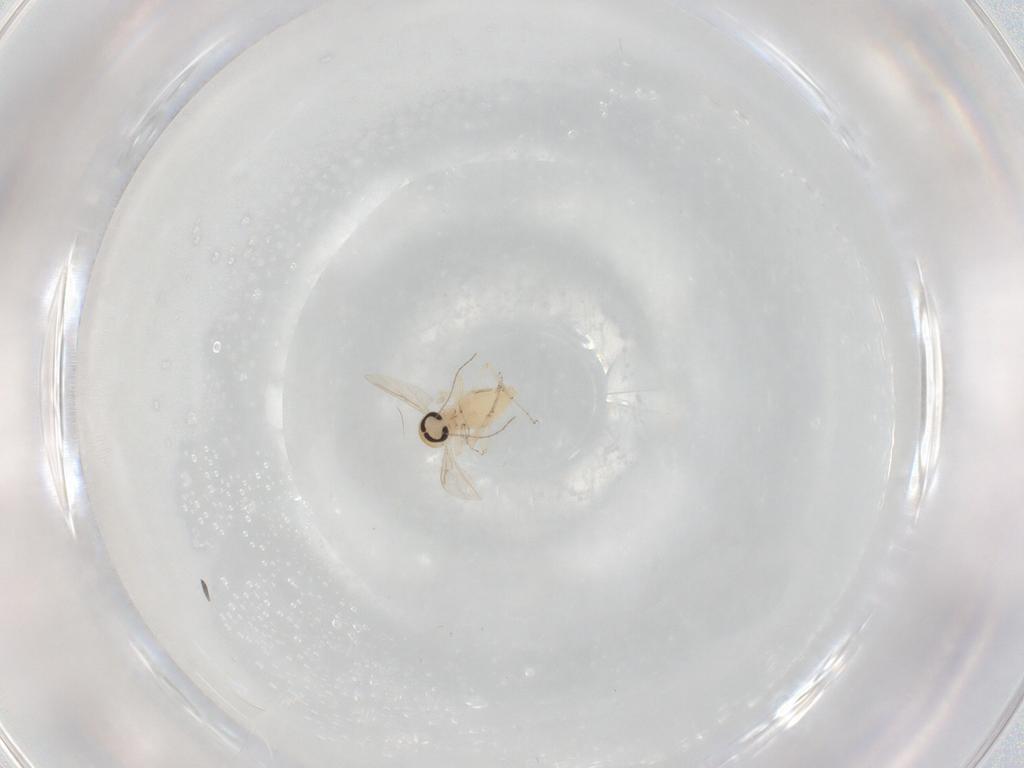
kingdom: Animalia
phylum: Arthropoda
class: Insecta
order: Diptera
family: Ceratopogonidae
